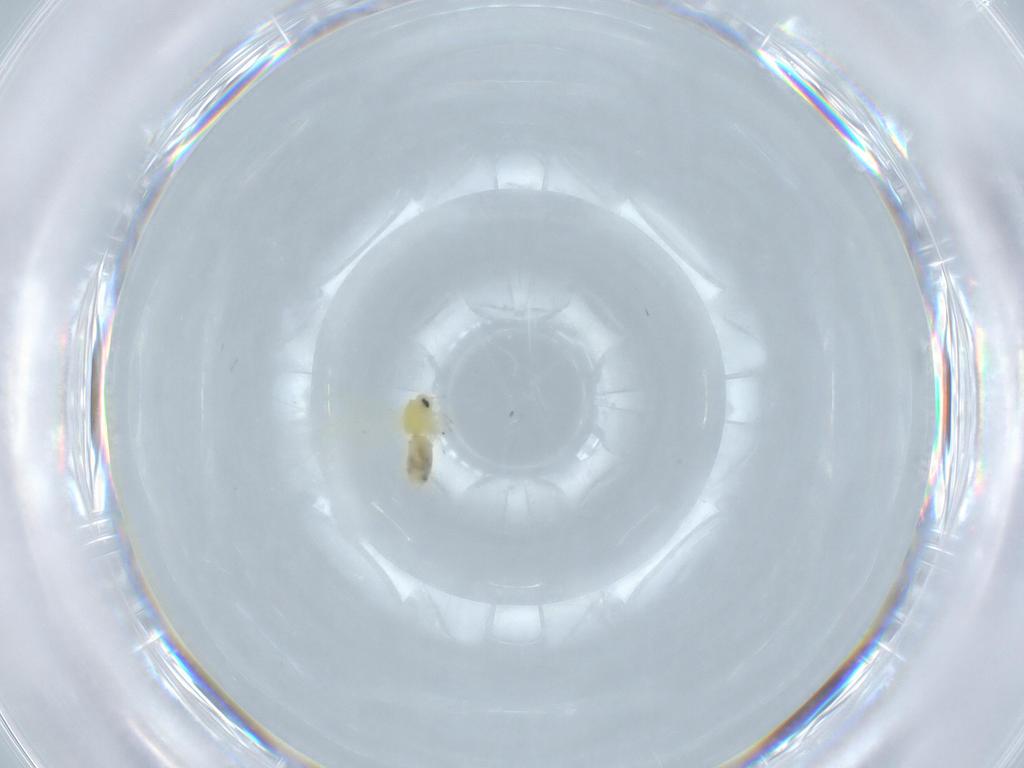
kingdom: Animalia
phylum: Arthropoda
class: Insecta
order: Hemiptera
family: Aleyrodidae
